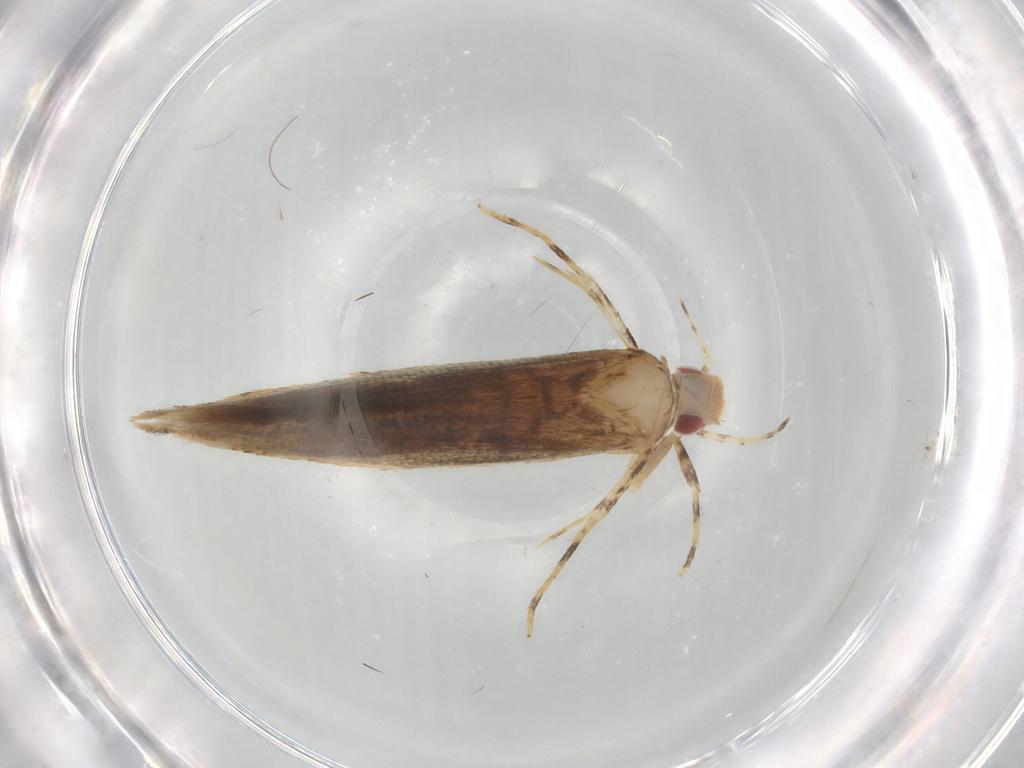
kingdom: Animalia
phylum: Arthropoda
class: Insecta
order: Lepidoptera
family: Cosmopterigidae
